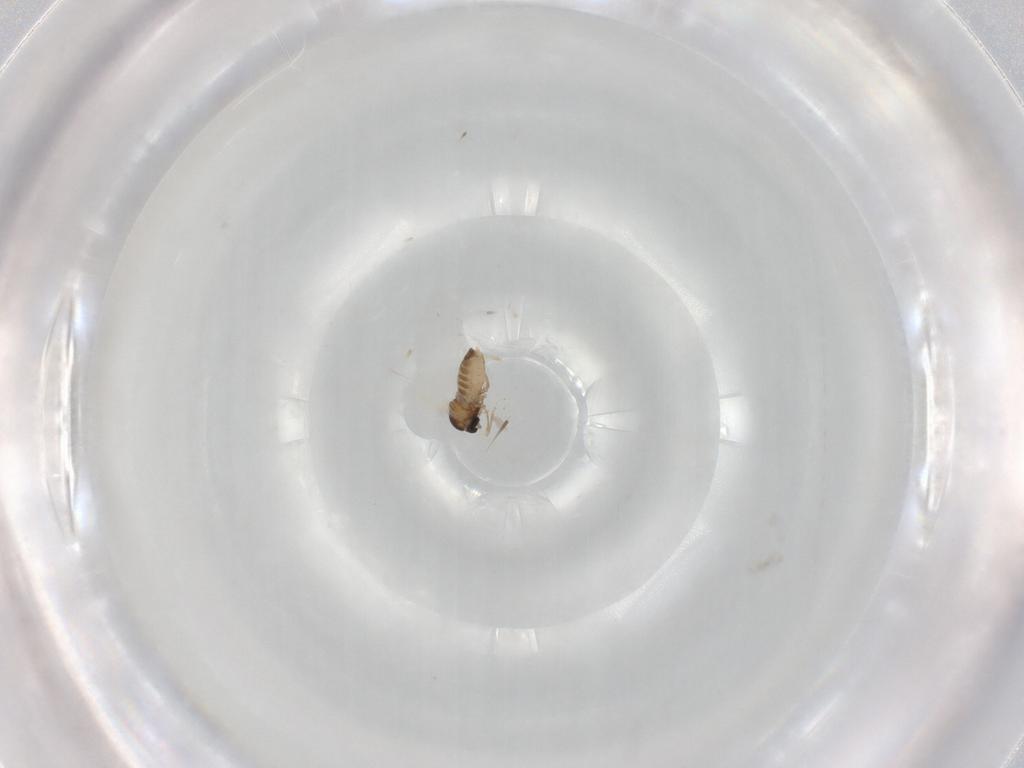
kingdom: Animalia
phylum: Arthropoda
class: Insecta
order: Diptera
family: Cecidomyiidae
